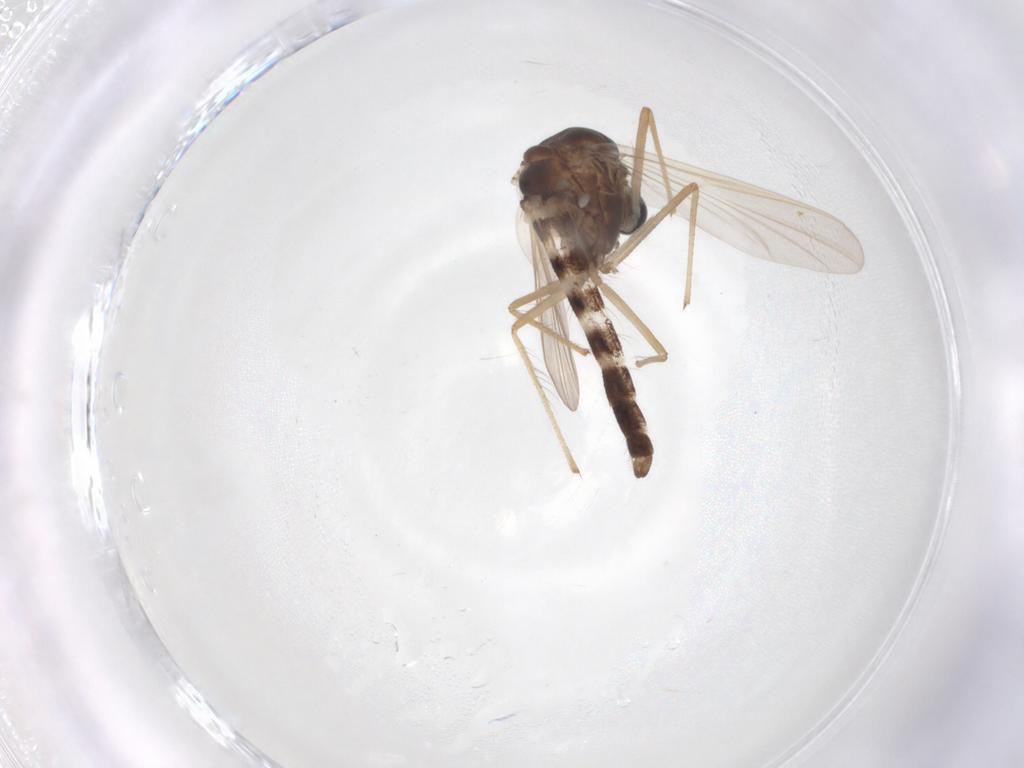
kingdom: Animalia
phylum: Arthropoda
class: Insecta
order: Diptera
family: Chironomidae
